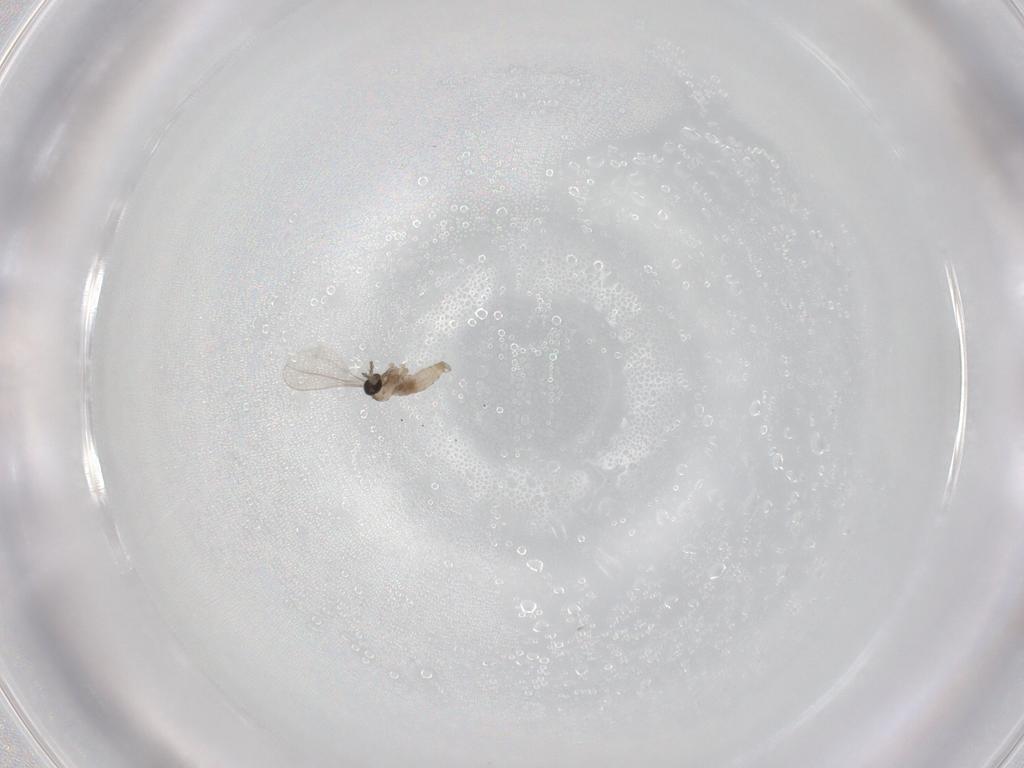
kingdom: Animalia
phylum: Arthropoda
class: Insecta
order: Diptera
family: Cecidomyiidae
